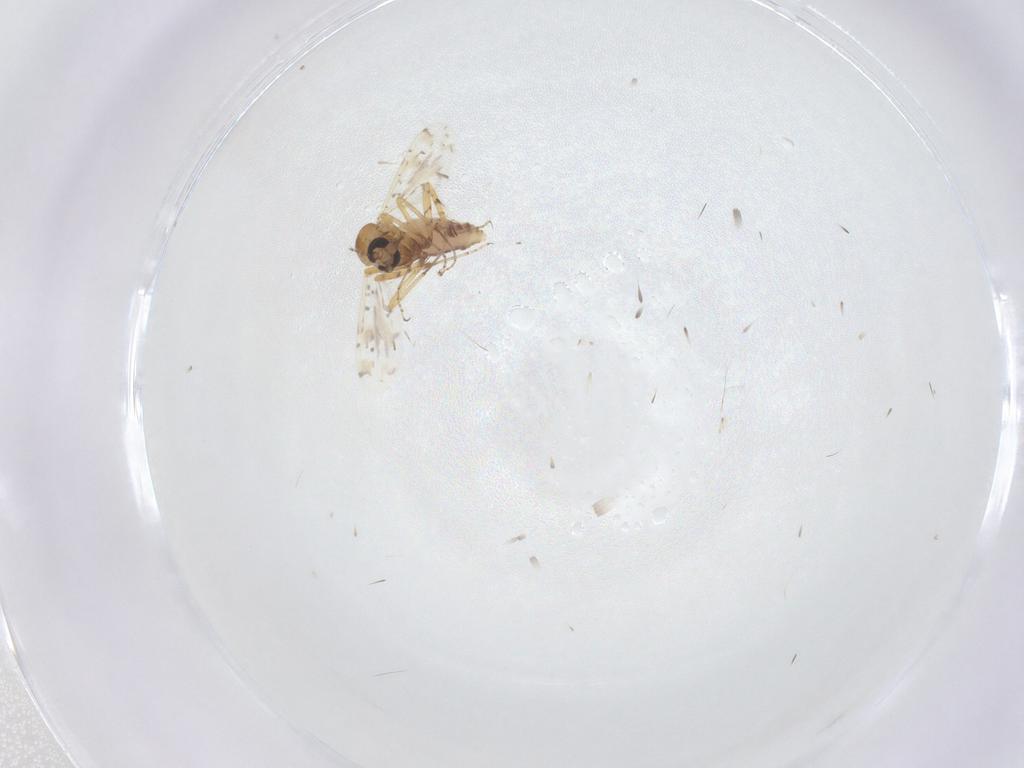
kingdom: Animalia
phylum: Arthropoda
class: Insecta
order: Diptera
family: Ceratopogonidae
